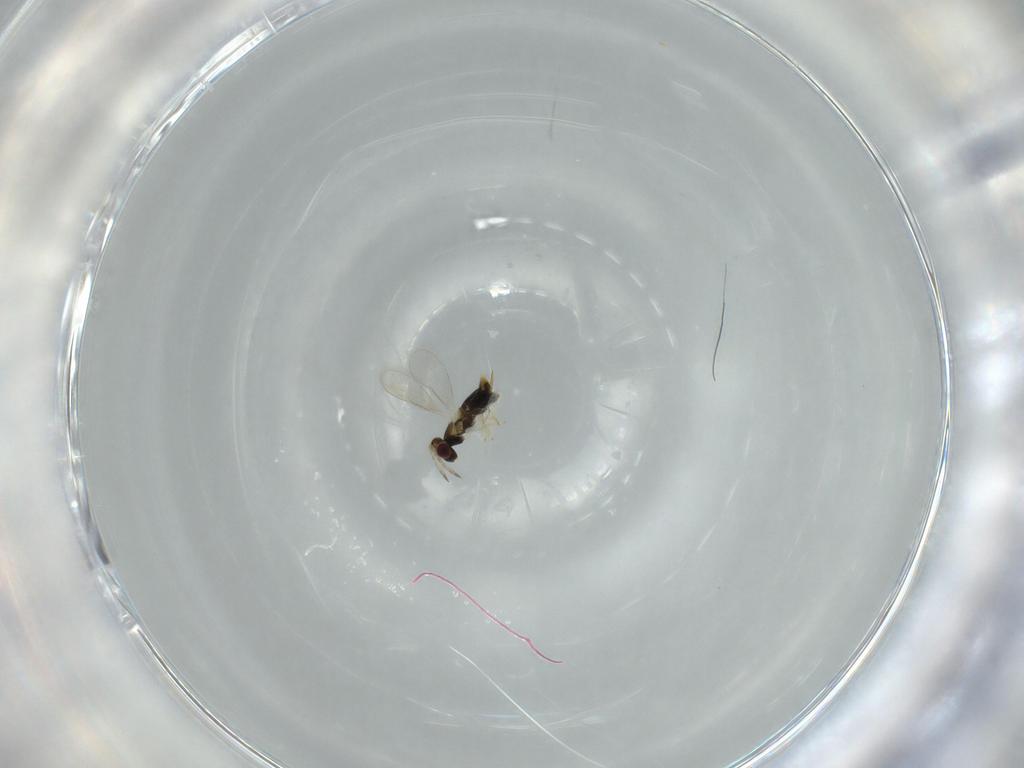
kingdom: Animalia
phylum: Arthropoda
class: Insecta
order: Hymenoptera
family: Aphelinidae
